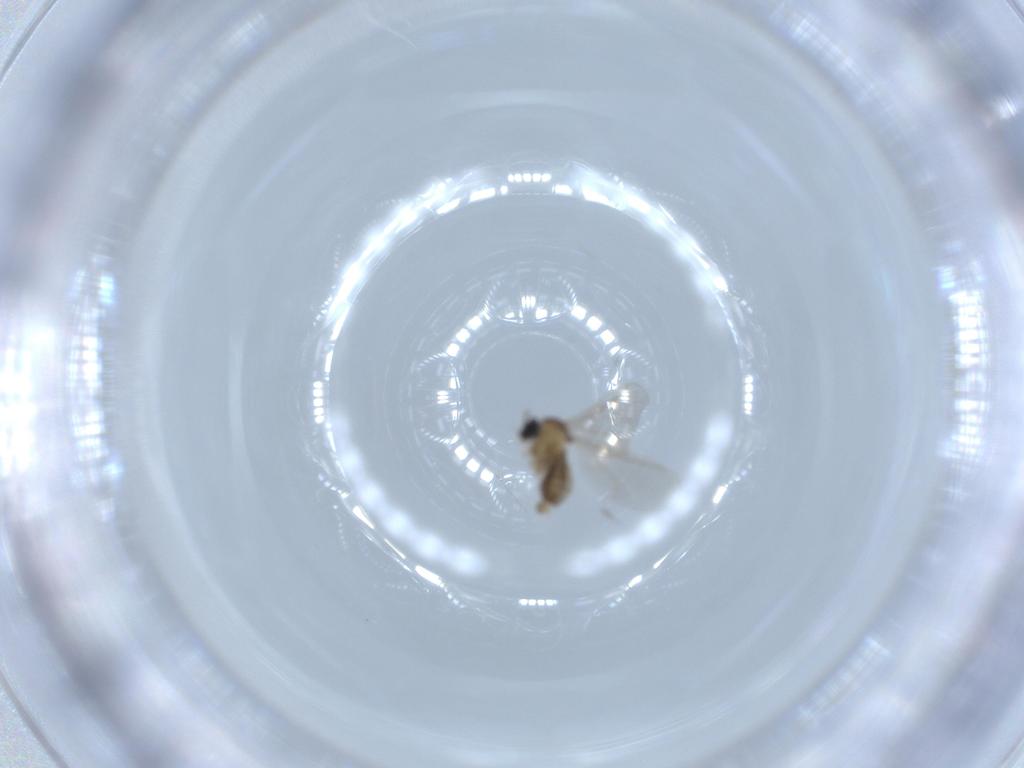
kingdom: Animalia
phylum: Arthropoda
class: Insecta
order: Diptera
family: Cecidomyiidae
